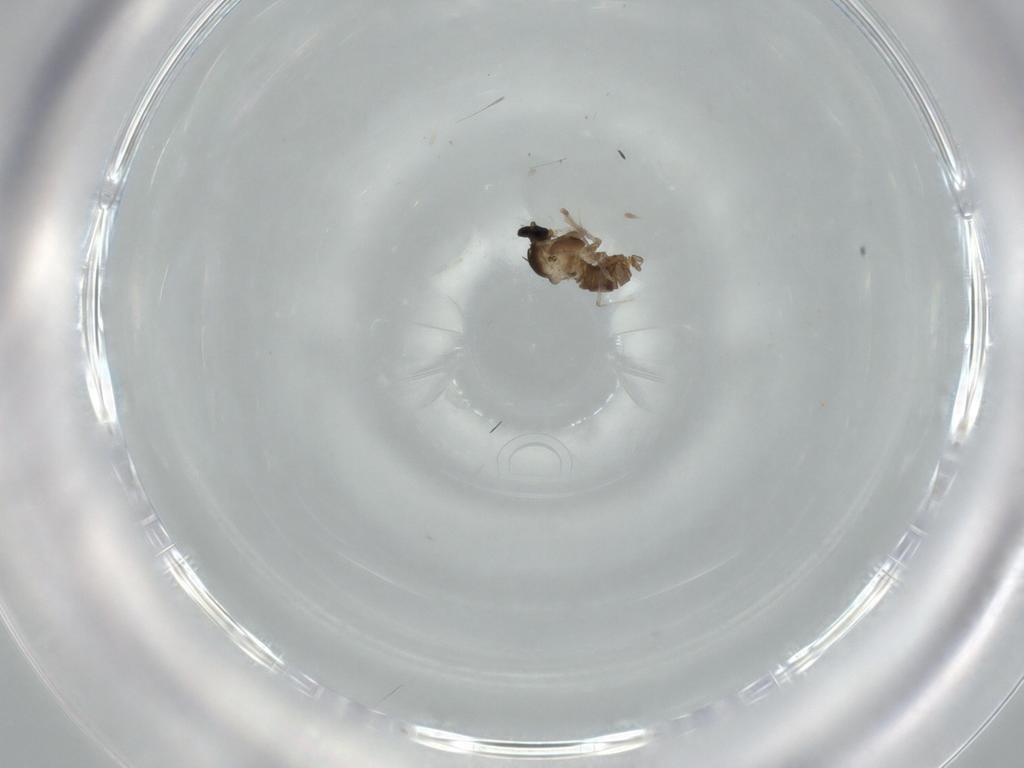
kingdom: Animalia
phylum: Arthropoda
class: Insecta
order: Diptera
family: Cecidomyiidae
